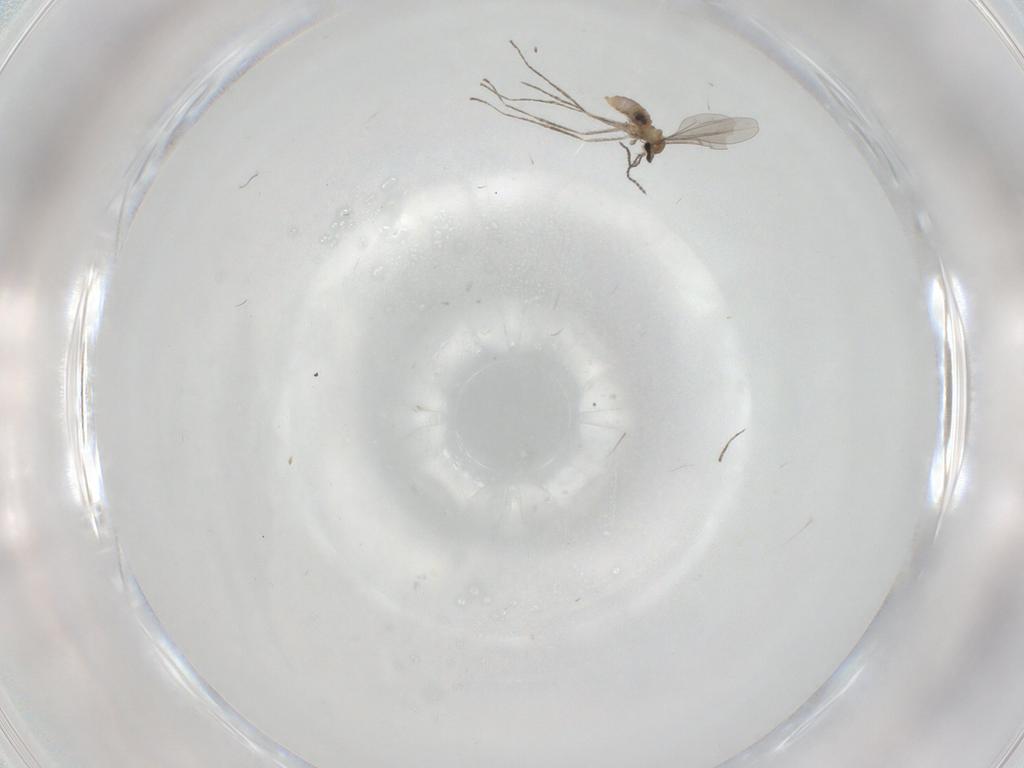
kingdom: Animalia
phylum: Arthropoda
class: Insecta
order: Diptera
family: Cecidomyiidae
